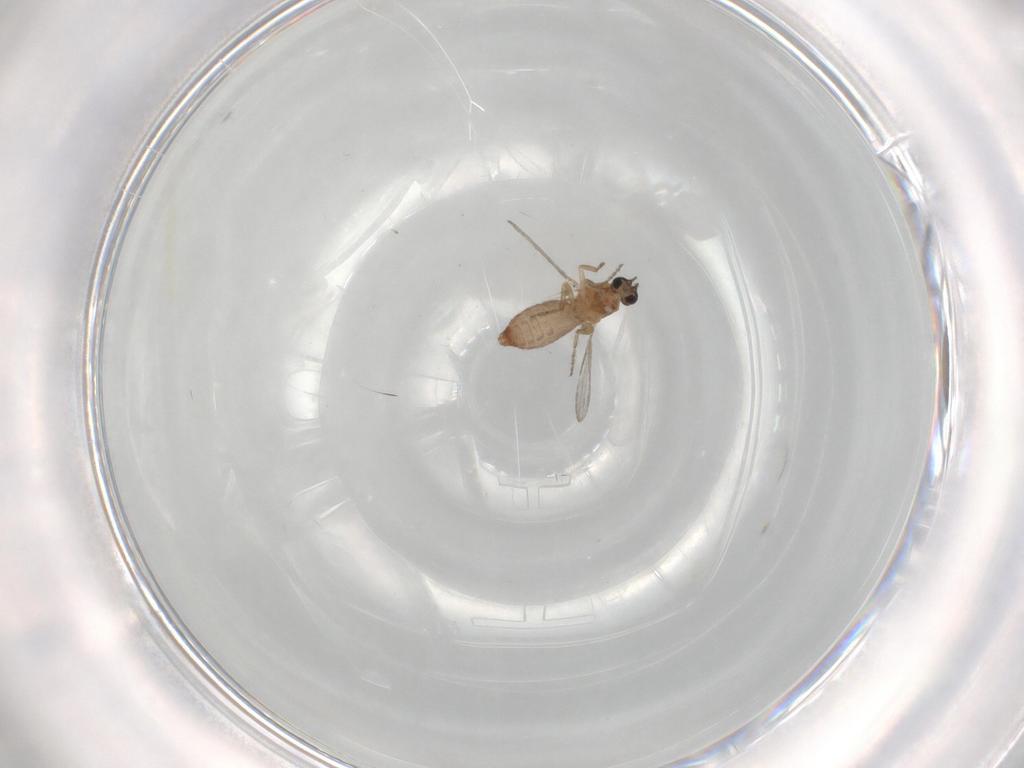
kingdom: Animalia
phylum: Arthropoda
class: Insecta
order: Diptera
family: Ceratopogonidae
